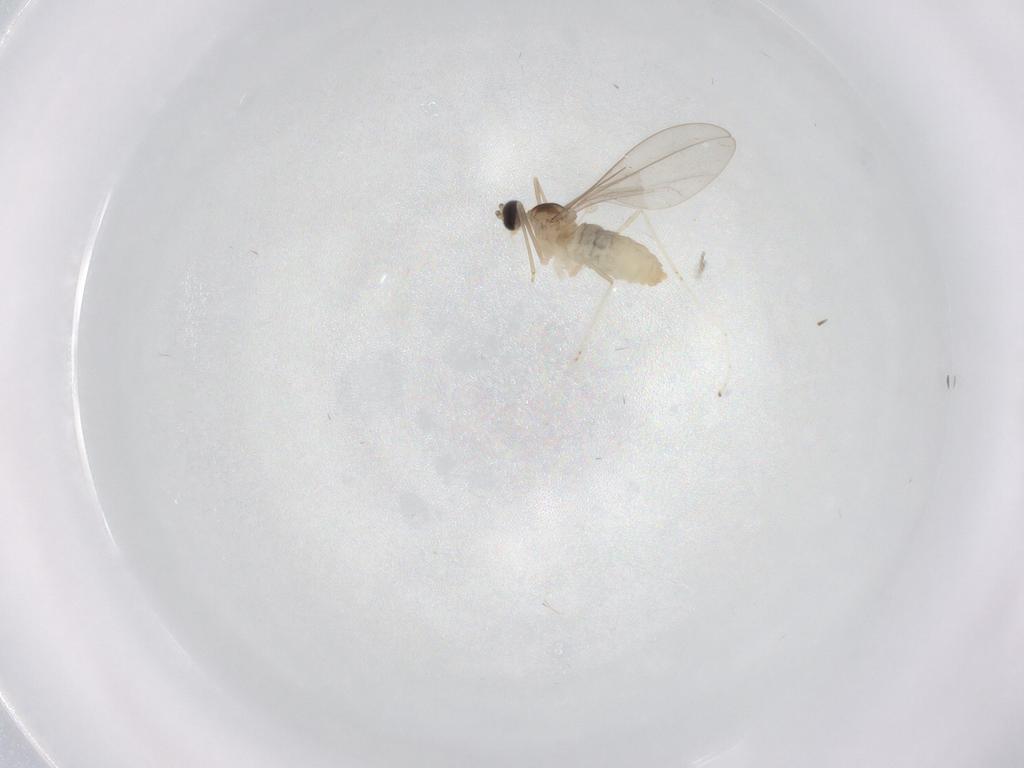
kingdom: Animalia
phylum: Arthropoda
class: Insecta
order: Diptera
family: Cecidomyiidae
